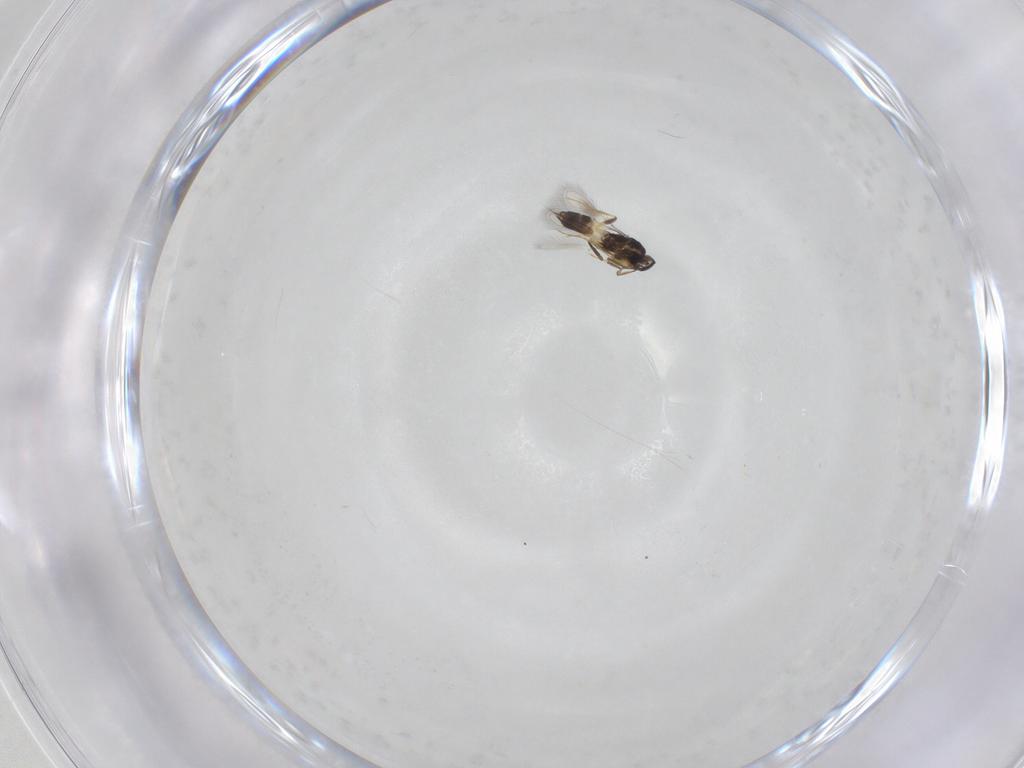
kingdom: Animalia
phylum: Arthropoda
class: Insecta
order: Hymenoptera
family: Mymaridae
